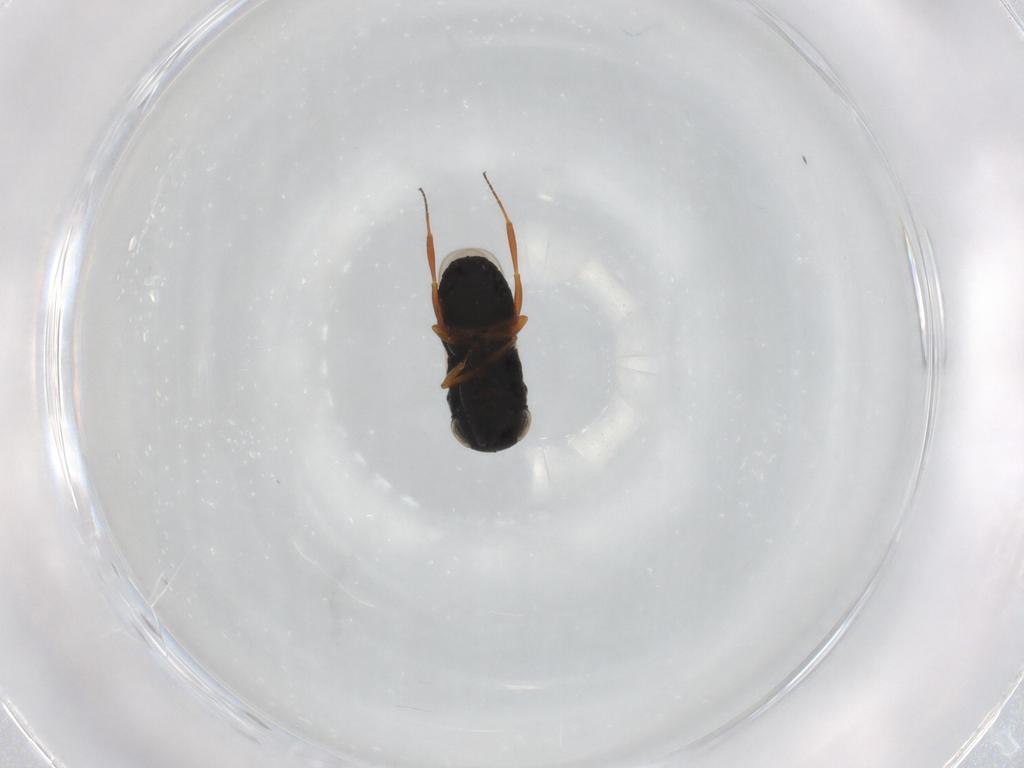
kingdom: Animalia
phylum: Arthropoda
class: Insecta
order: Hymenoptera
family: Scelionidae
